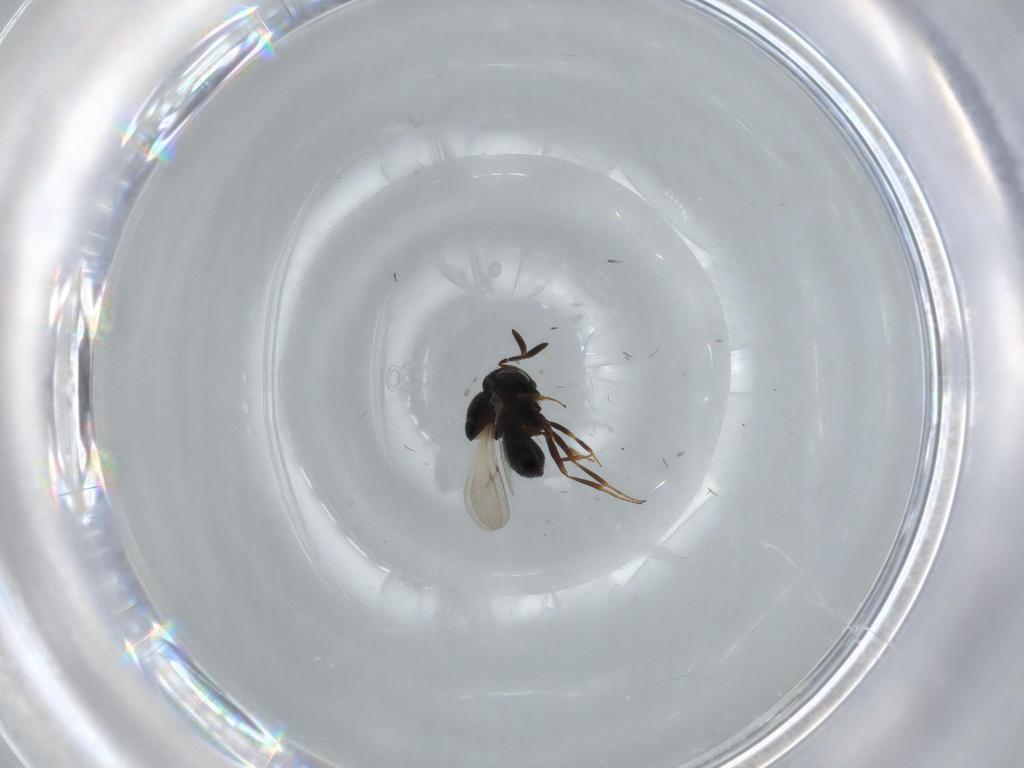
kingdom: Animalia
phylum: Arthropoda
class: Insecta
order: Hymenoptera
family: Scelionidae
